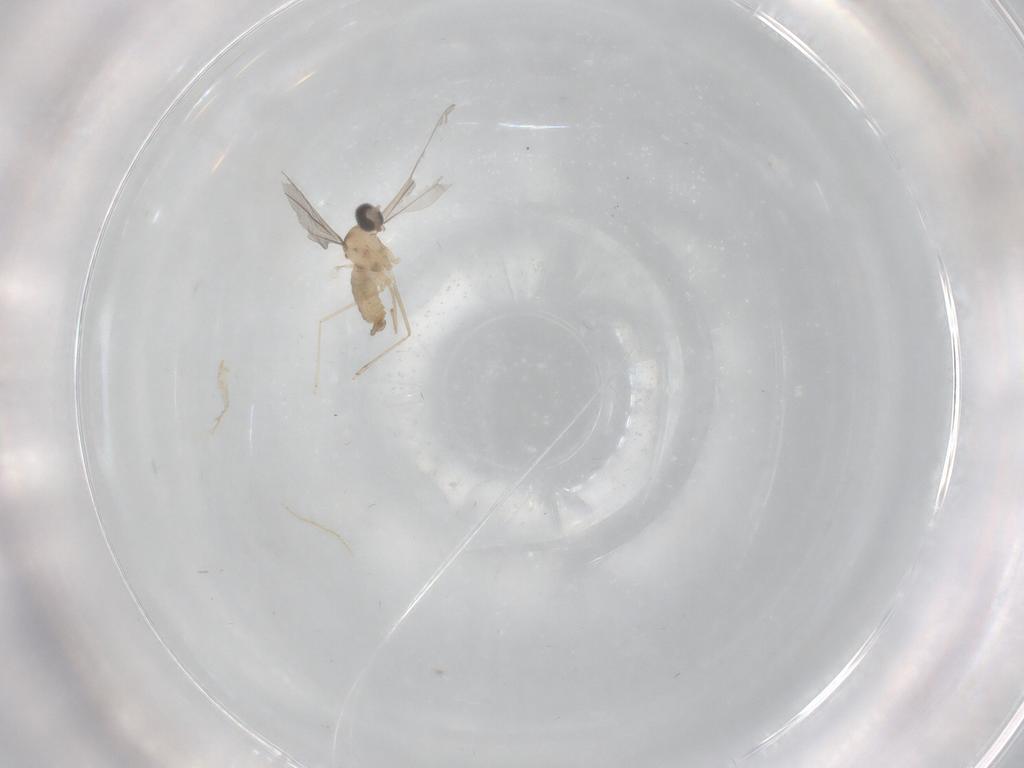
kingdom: Animalia
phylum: Arthropoda
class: Insecta
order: Diptera
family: Cecidomyiidae
